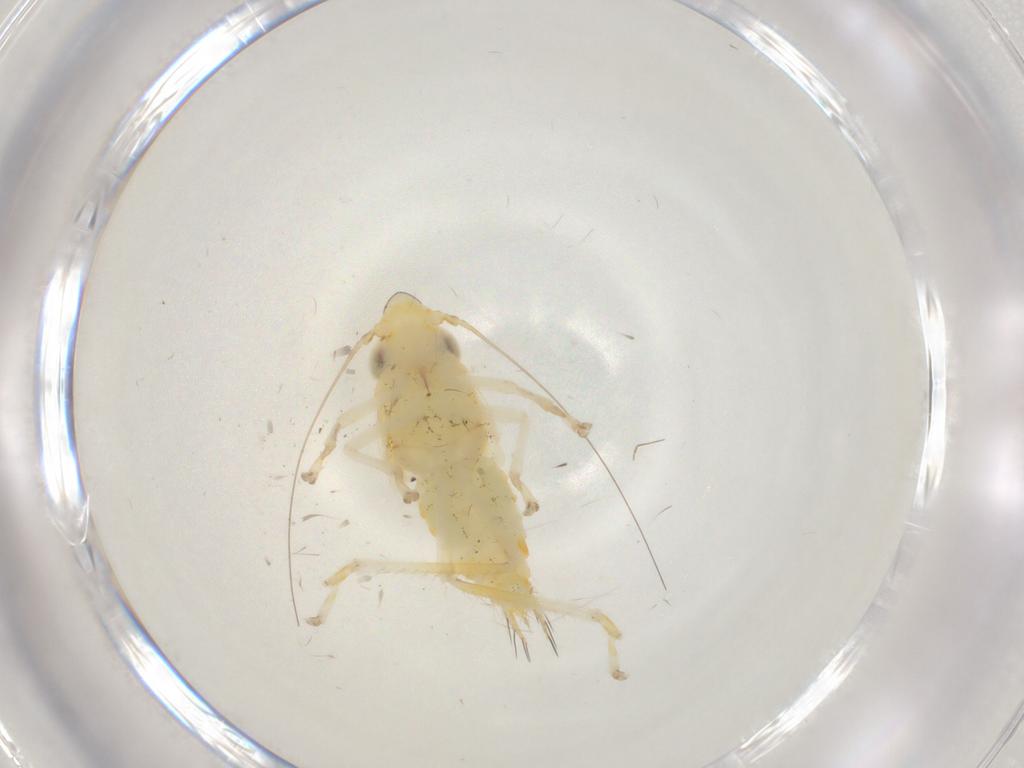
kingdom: Animalia
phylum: Arthropoda
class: Insecta
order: Hemiptera
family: Cicadellidae
